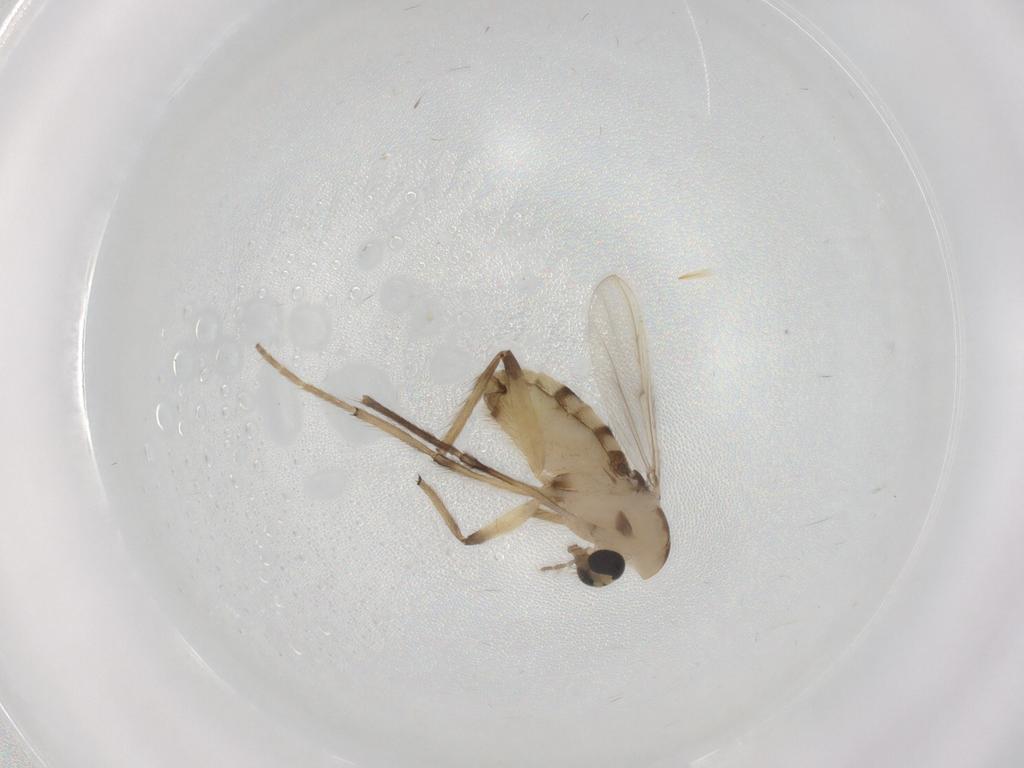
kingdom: Animalia
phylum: Arthropoda
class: Insecta
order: Diptera
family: Chironomidae
